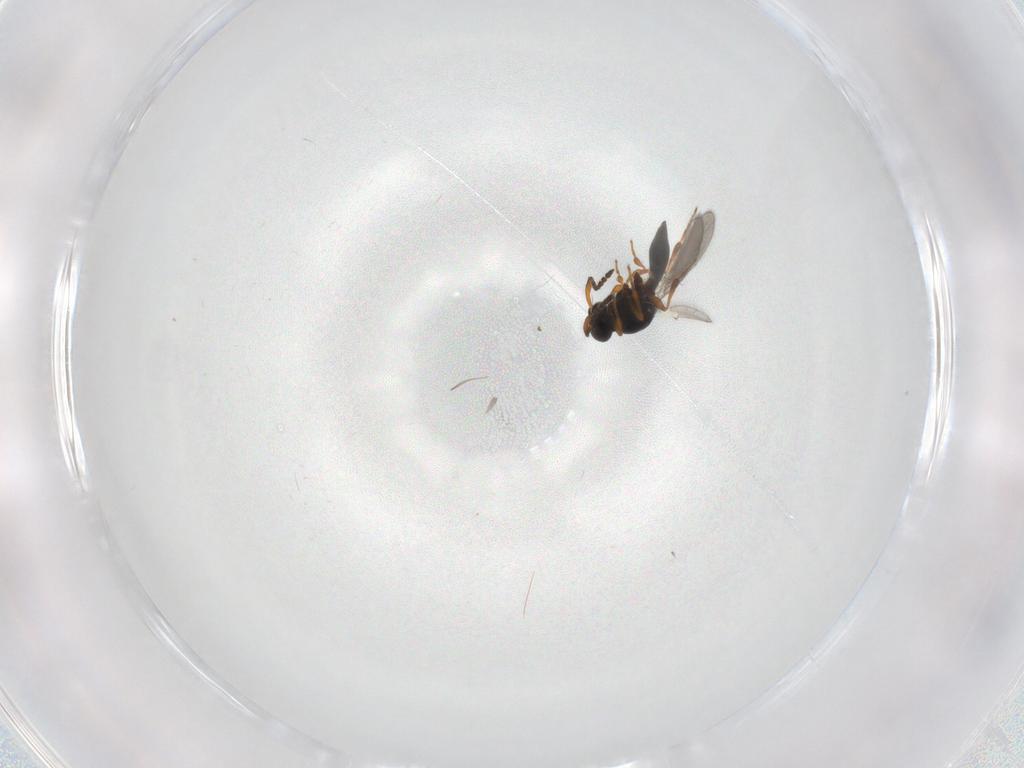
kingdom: Animalia
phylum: Arthropoda
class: Insecta
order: Hymenoptera
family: Platygastridae
